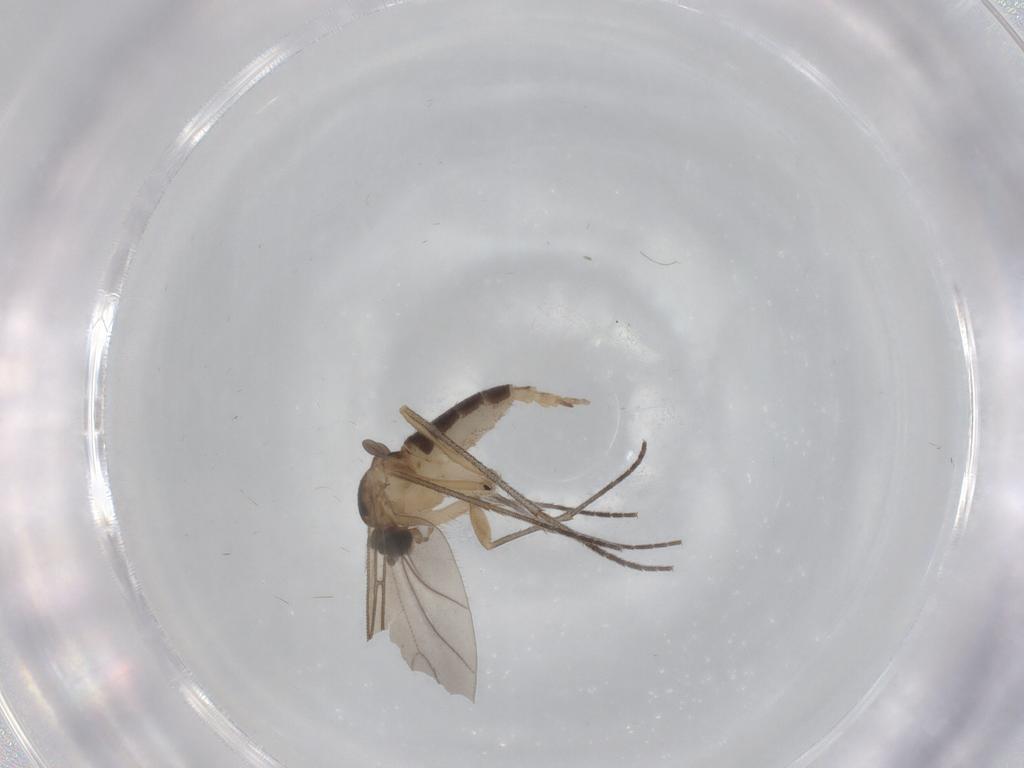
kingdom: Animalia
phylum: Arthropoda
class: Insecta
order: Diptera
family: Sciaridae
